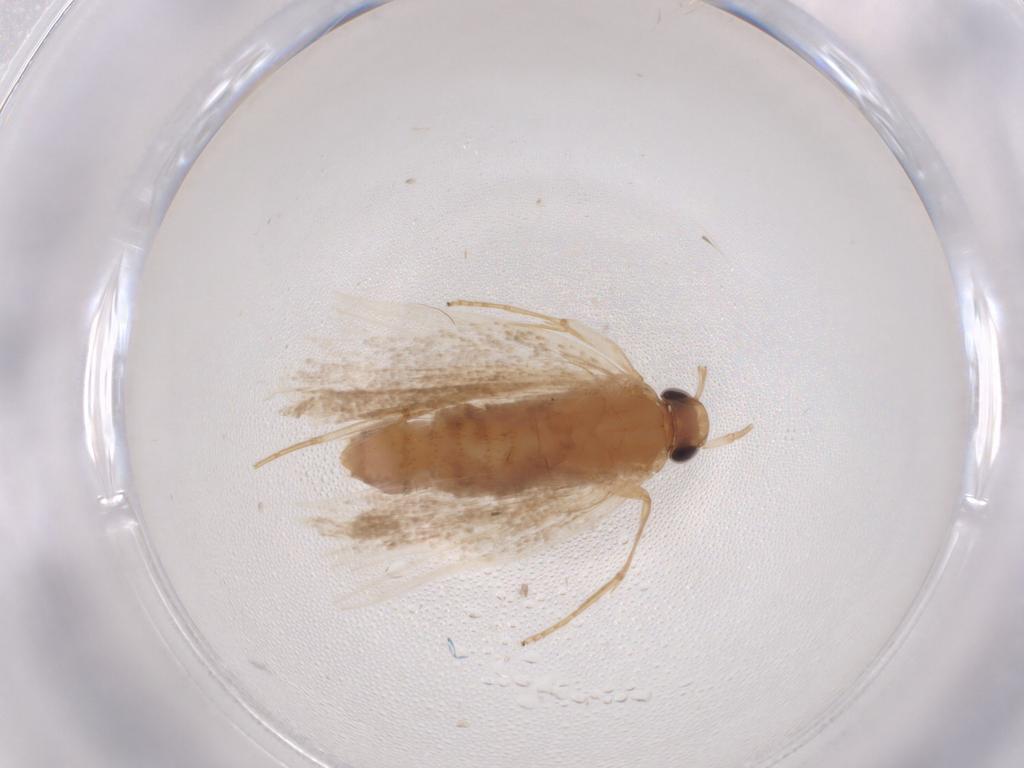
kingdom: Animalia
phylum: Arthropoda
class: Insecta
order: Lepidoptera
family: Lecithoceridae
